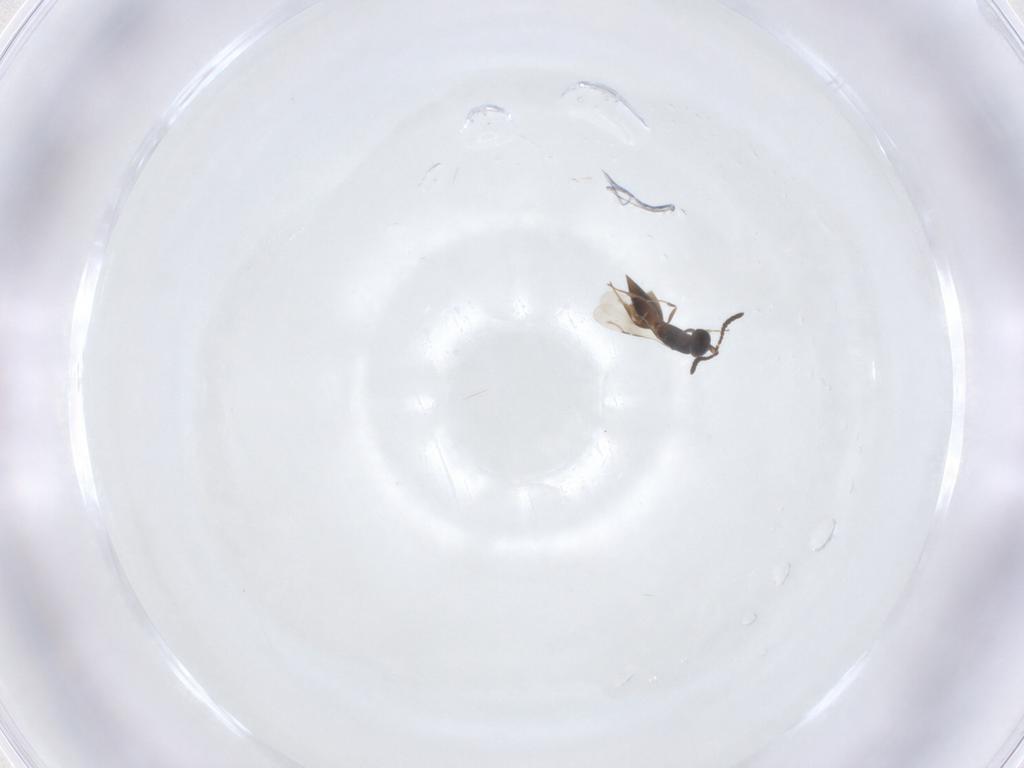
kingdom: Animalia
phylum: Arthropoda
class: Insecta
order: Hymenoptera
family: Ceraphronidae
